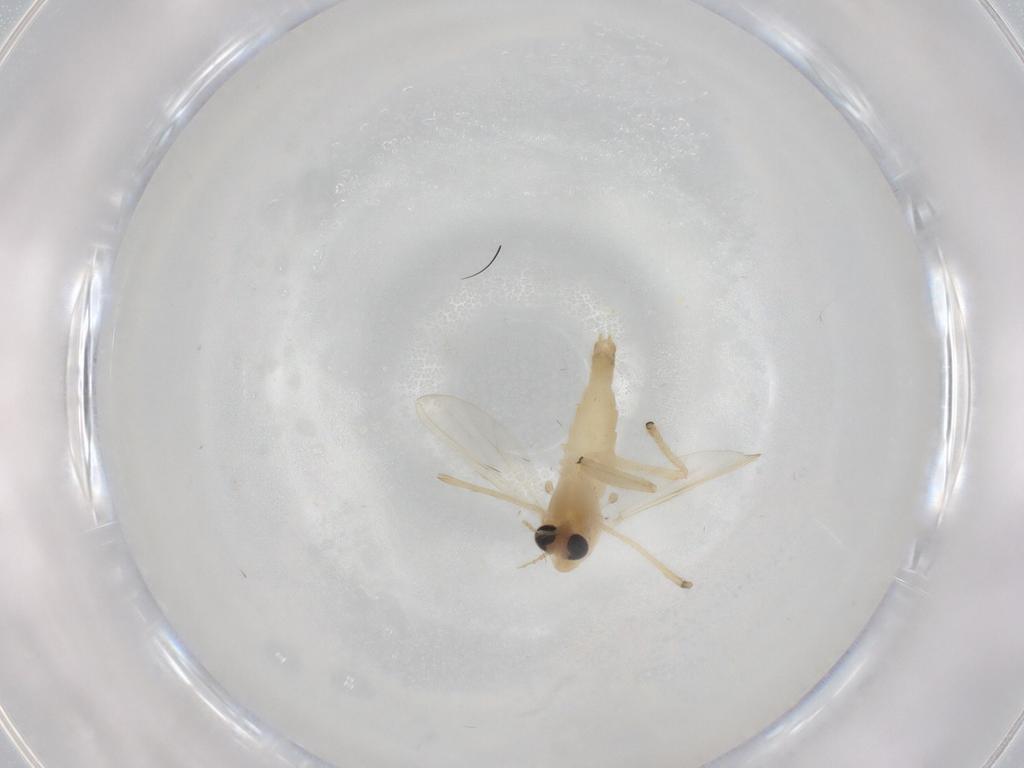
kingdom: Animalia
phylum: Arthropoda
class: Insecta
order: Diptera
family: Chironomidae
